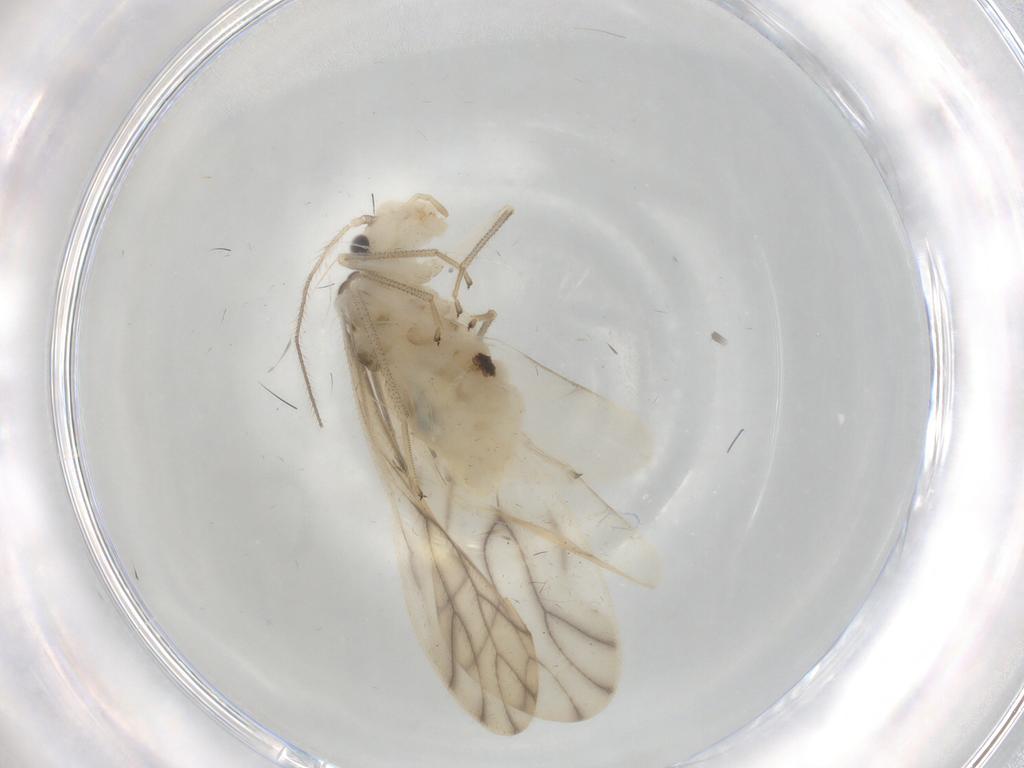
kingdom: Animalia
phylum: Arthropoda
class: Insecta
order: Psocodea
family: Caeciliusidae
